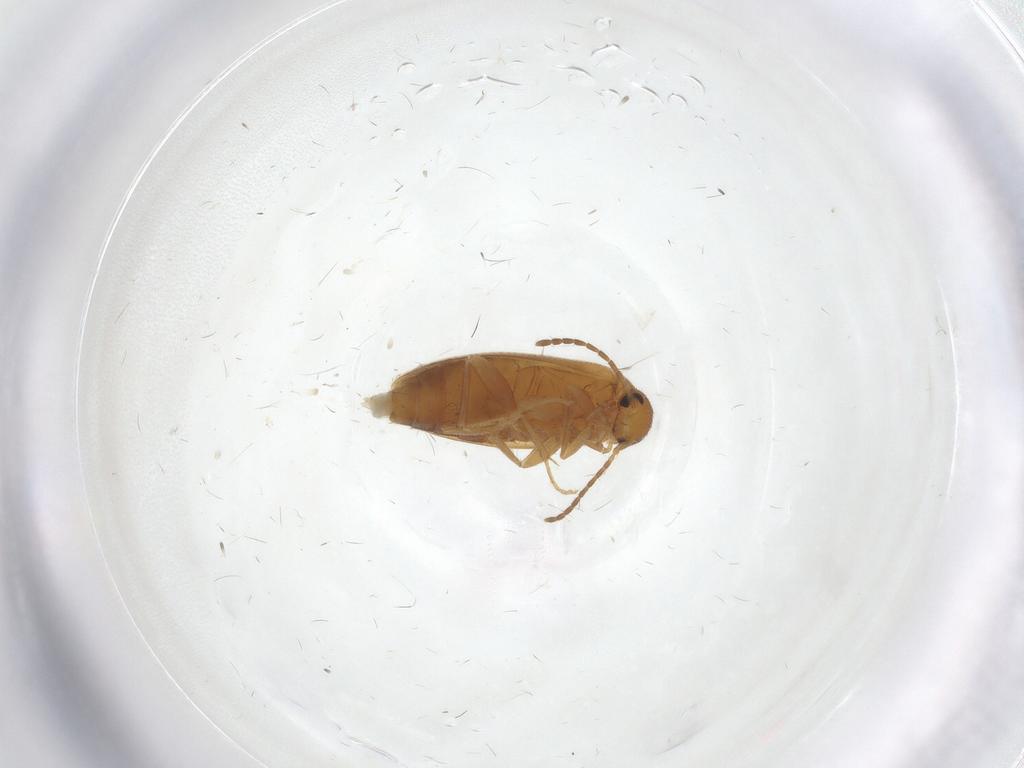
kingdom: Animalia
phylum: Arthropoda
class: Insecta
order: Coleoptera
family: Scraptiidae
